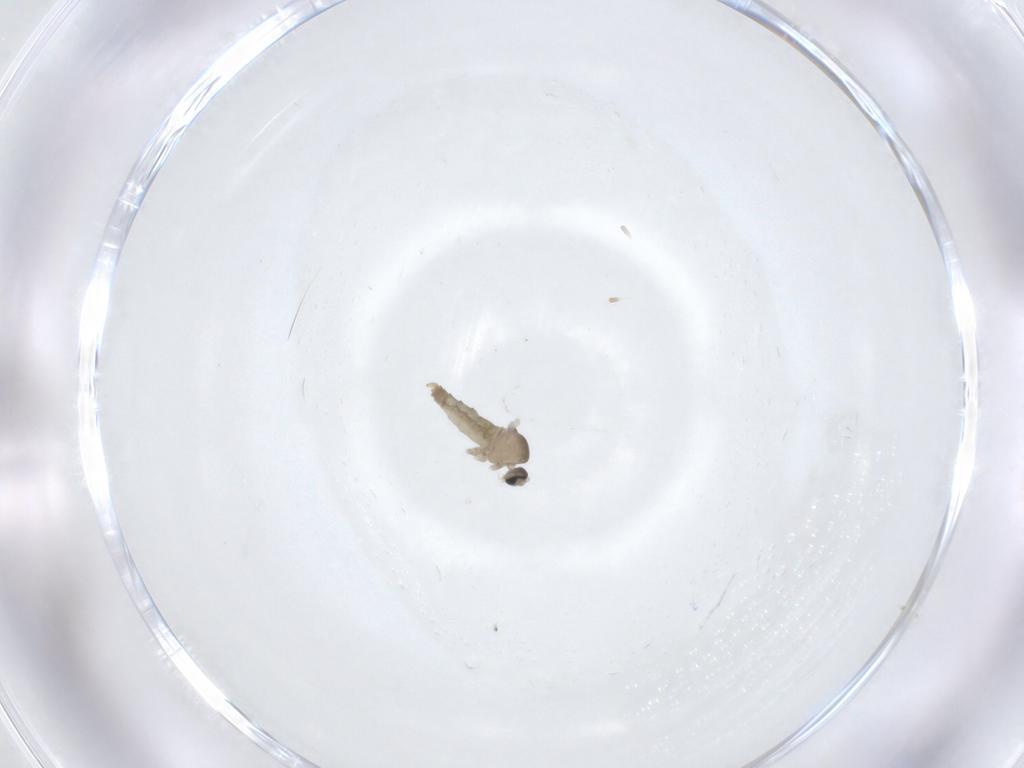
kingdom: Animalia
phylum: Arthropoda
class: Insecta
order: Diptera
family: Cecidomyiidae
